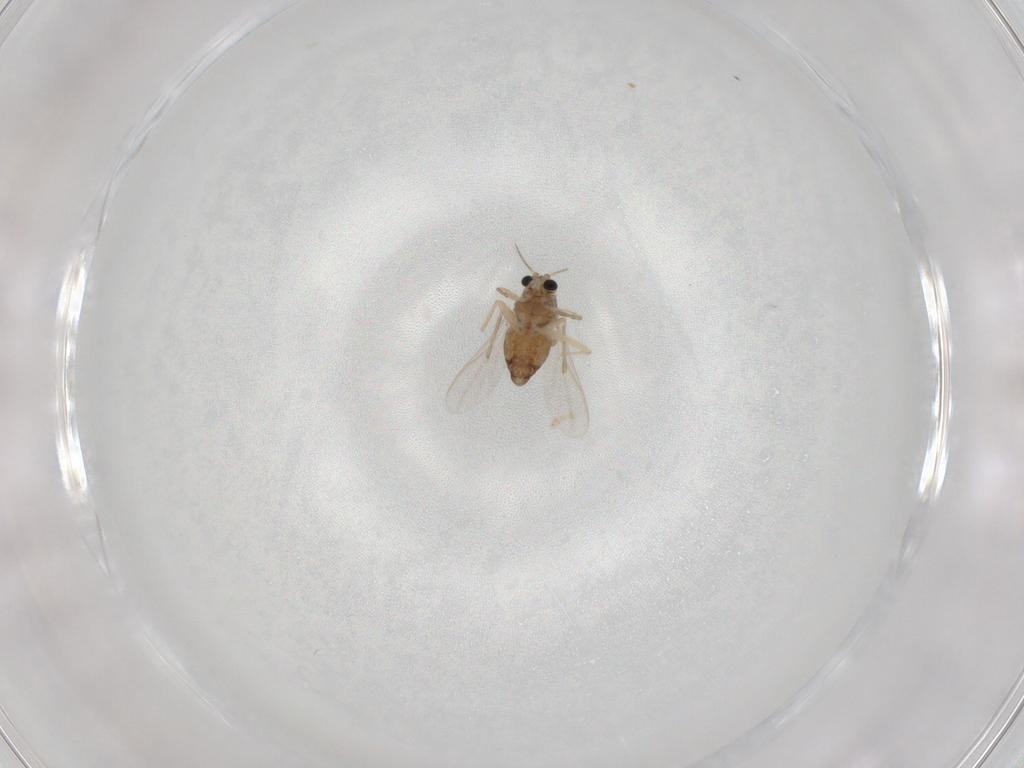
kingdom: Animalia
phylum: Arthropoda
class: Insecta
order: Diptera
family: Chironomidae
